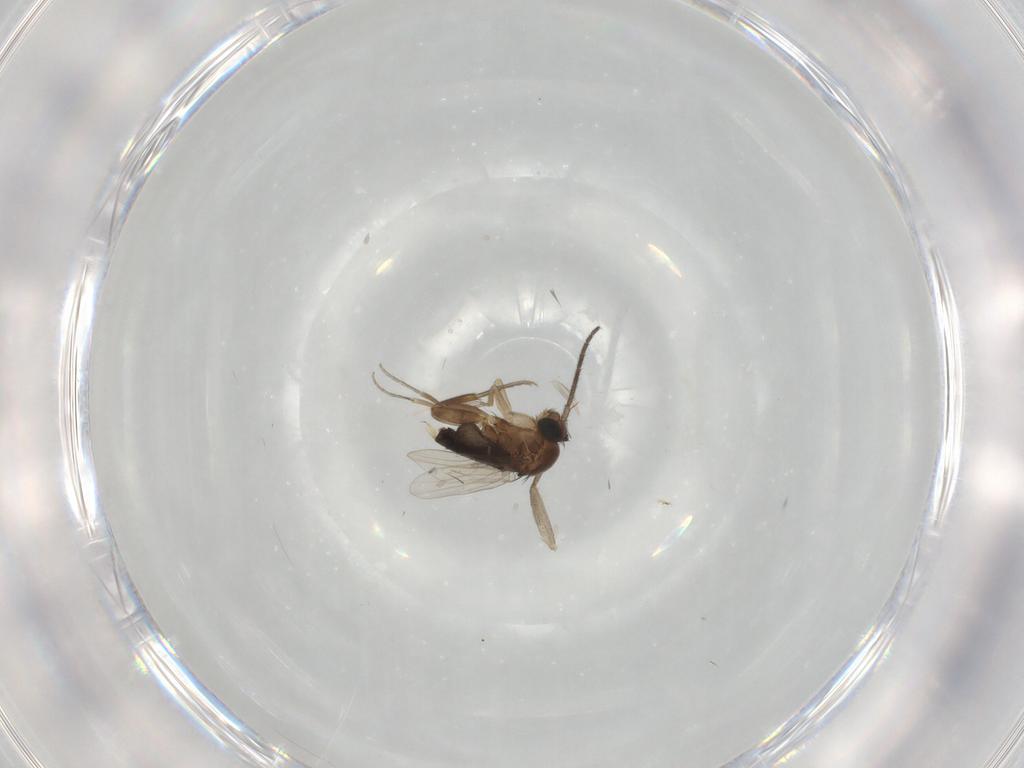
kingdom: Animalia
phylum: Arthropoda
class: Insecta
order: Diptera
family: Sciaridae
